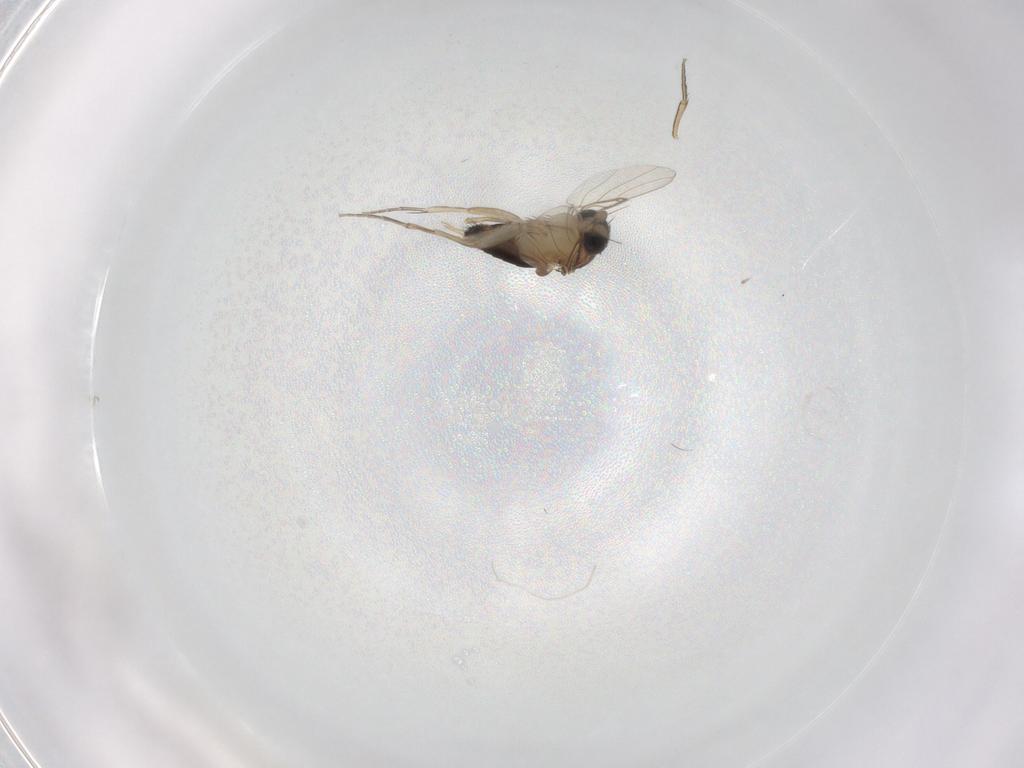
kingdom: Animalia
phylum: Arthropoda
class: Insecta
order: Diptera
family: Phoridae
